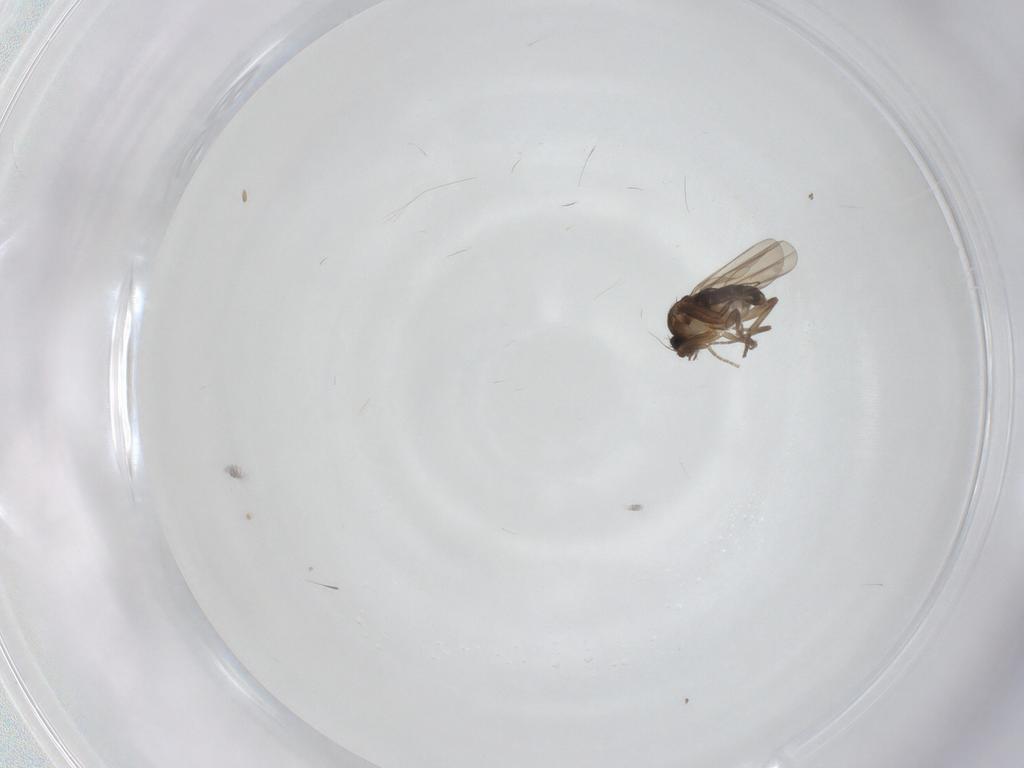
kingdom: Animalia
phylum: Arthropoda
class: Insecta
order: Diptera
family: Phoridae
